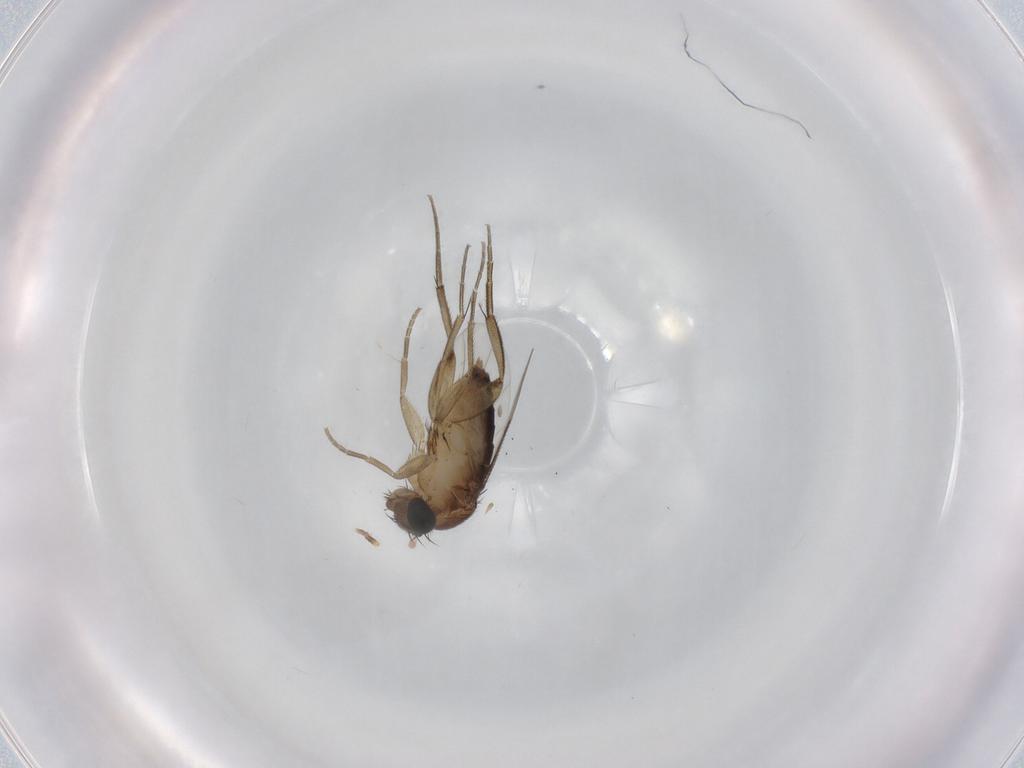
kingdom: Animalia
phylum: Arthropoda
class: Insecta
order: Diptera
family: Phoridae
